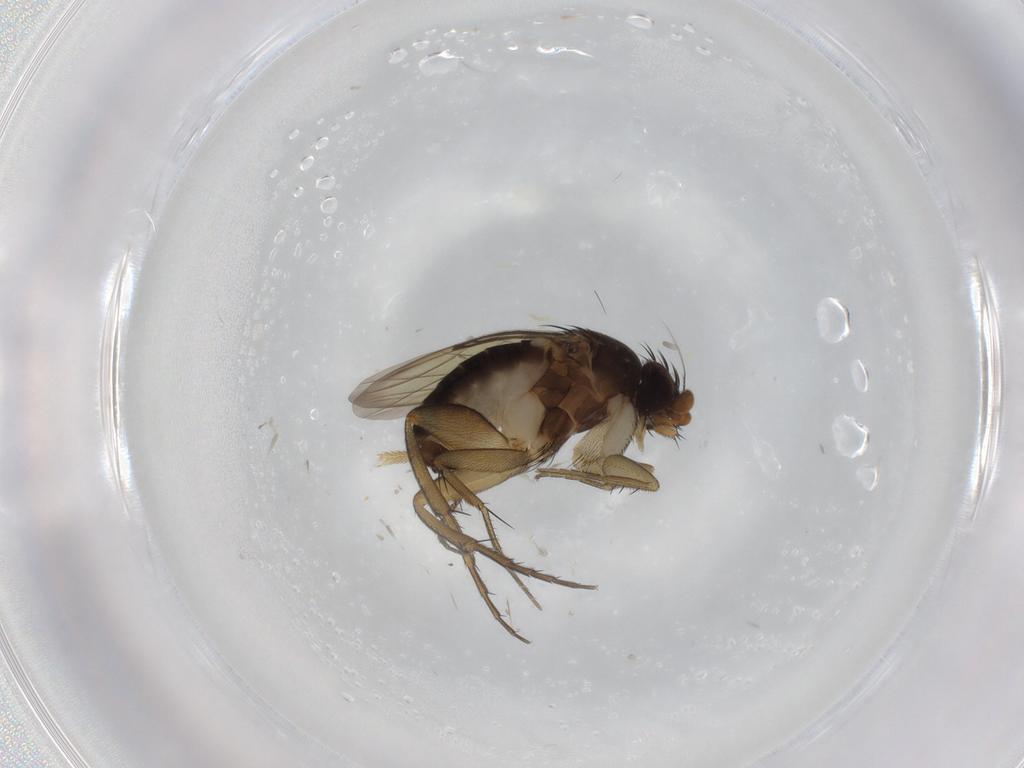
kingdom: Animalia
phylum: Arthropoda
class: Insecta
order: Diptera
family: Phoridae
